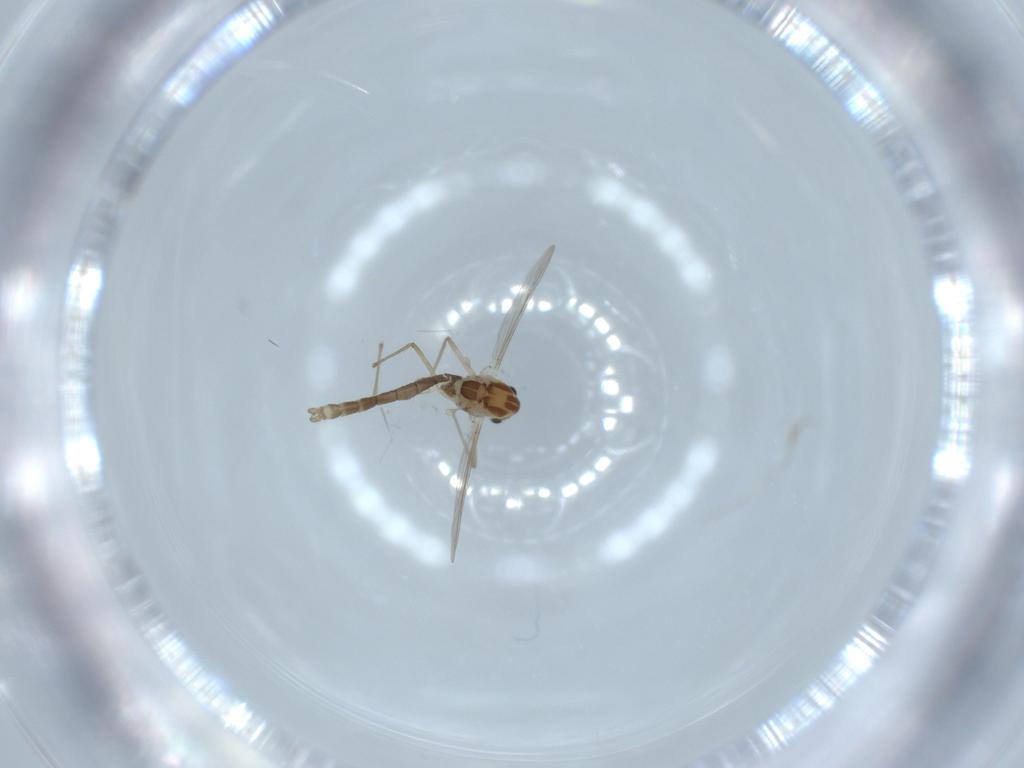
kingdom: Animalia
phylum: Arthropoda
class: Insecta
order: Diptera
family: Chironomidae
